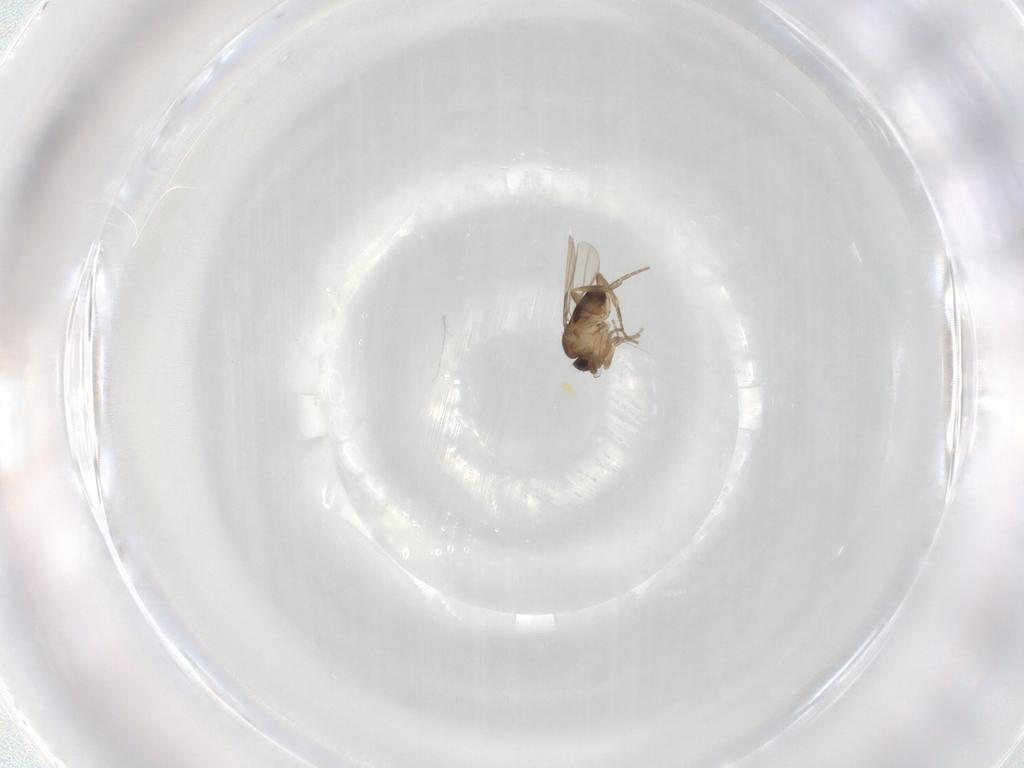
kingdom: Animalia
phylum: Arthropoda
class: Insecta
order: Diptera
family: Phoridae
